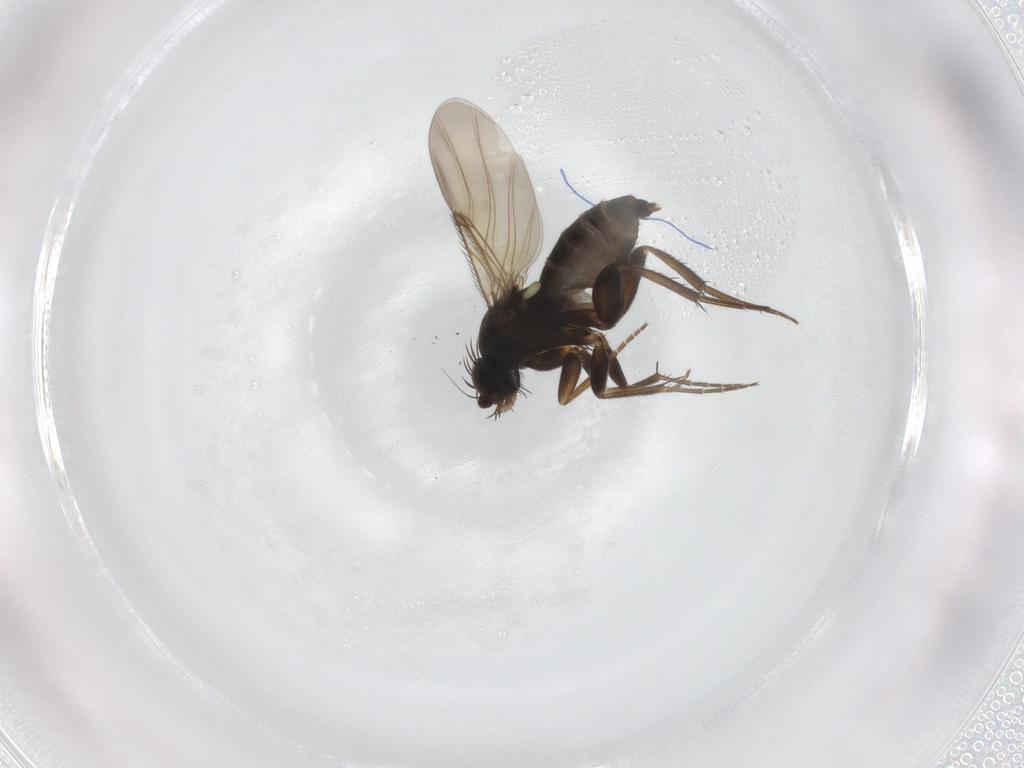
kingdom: Animalia
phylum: Arthropoda
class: Insecta
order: Diptera
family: Phoridae
